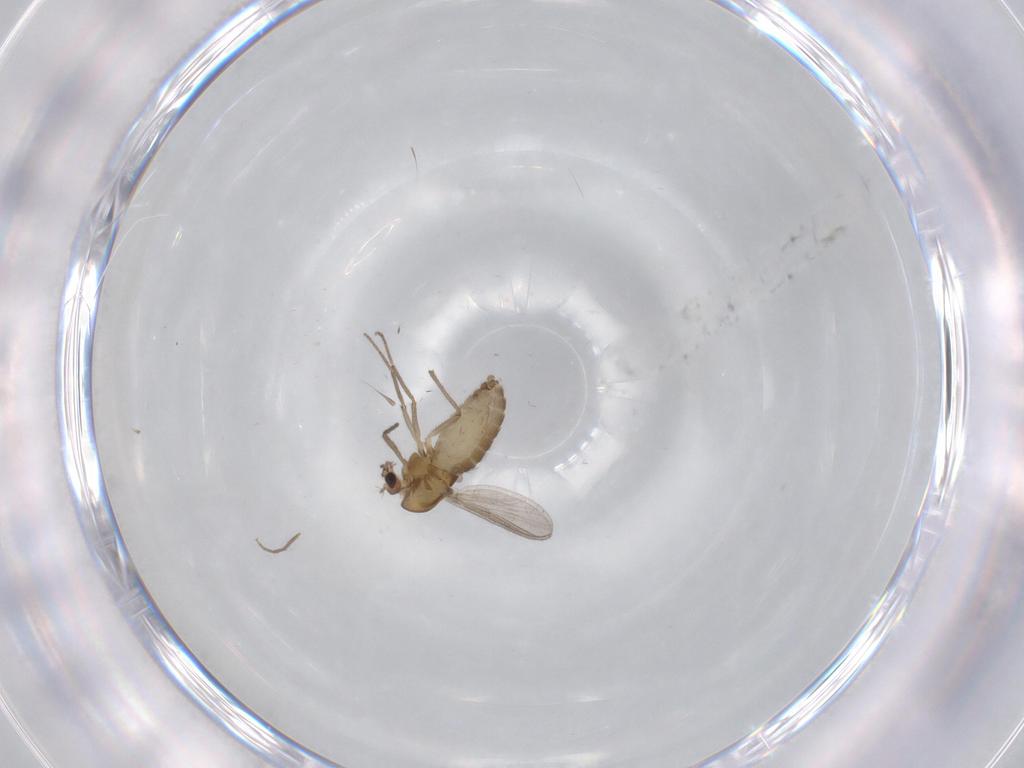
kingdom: Animalia
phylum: Arthropoda
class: Insecta
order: Diptera
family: Chironomidae
